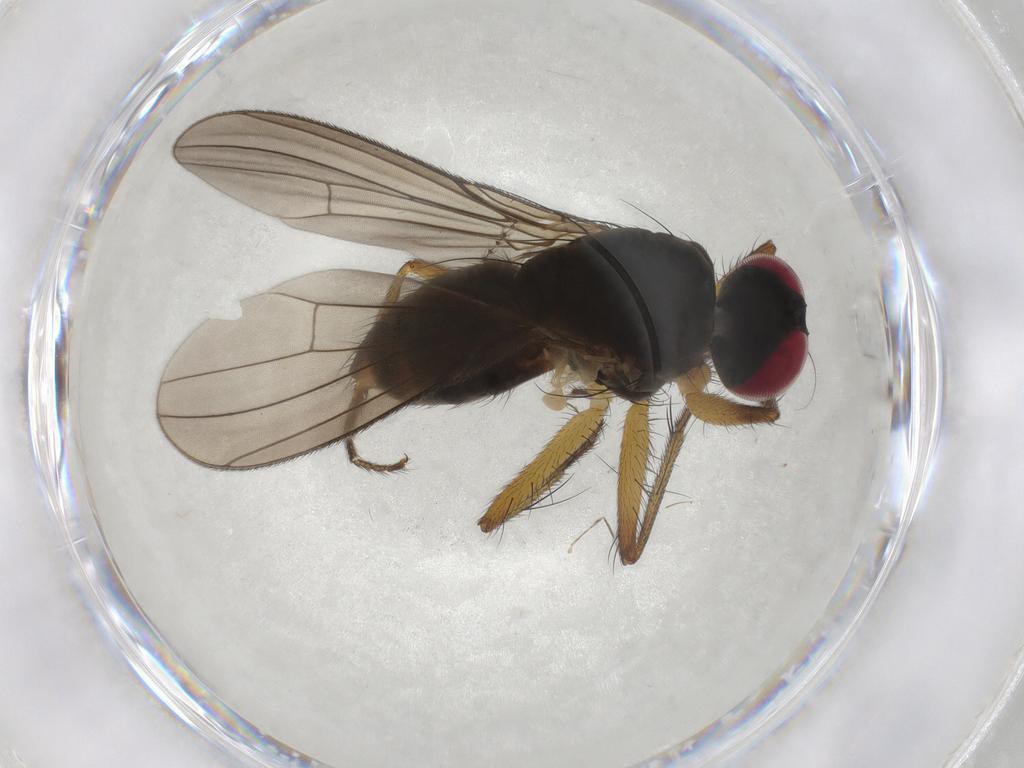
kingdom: Animalia
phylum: Arthropoda
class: Insecta
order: Diptera
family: Anthomyiidae
